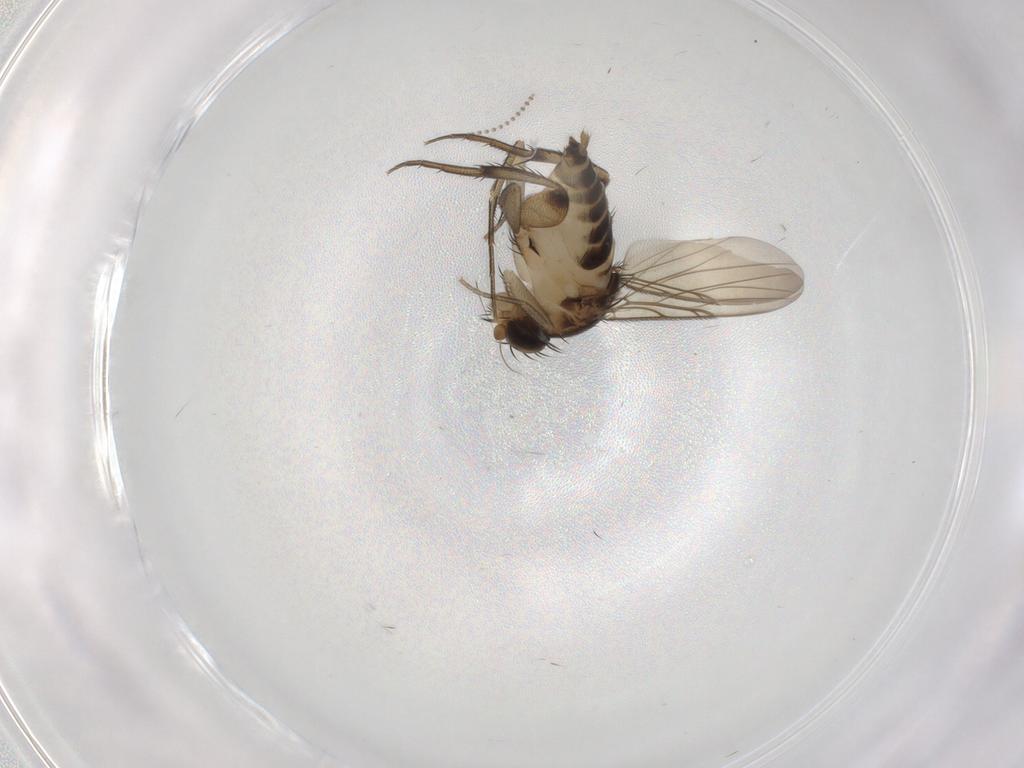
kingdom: Animalia
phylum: Arthropoda
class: Insecta
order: Diptera
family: Phoridae
